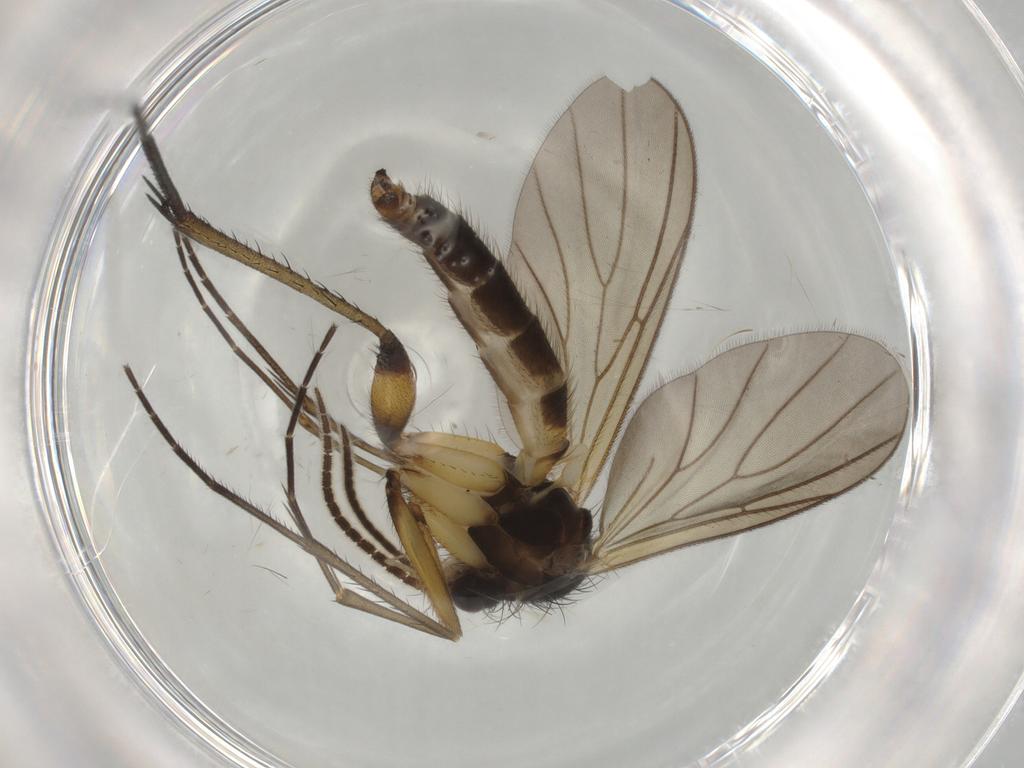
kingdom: Animalia
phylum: Arthropoda
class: Insecta
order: Diptera
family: Mycetophilidae
